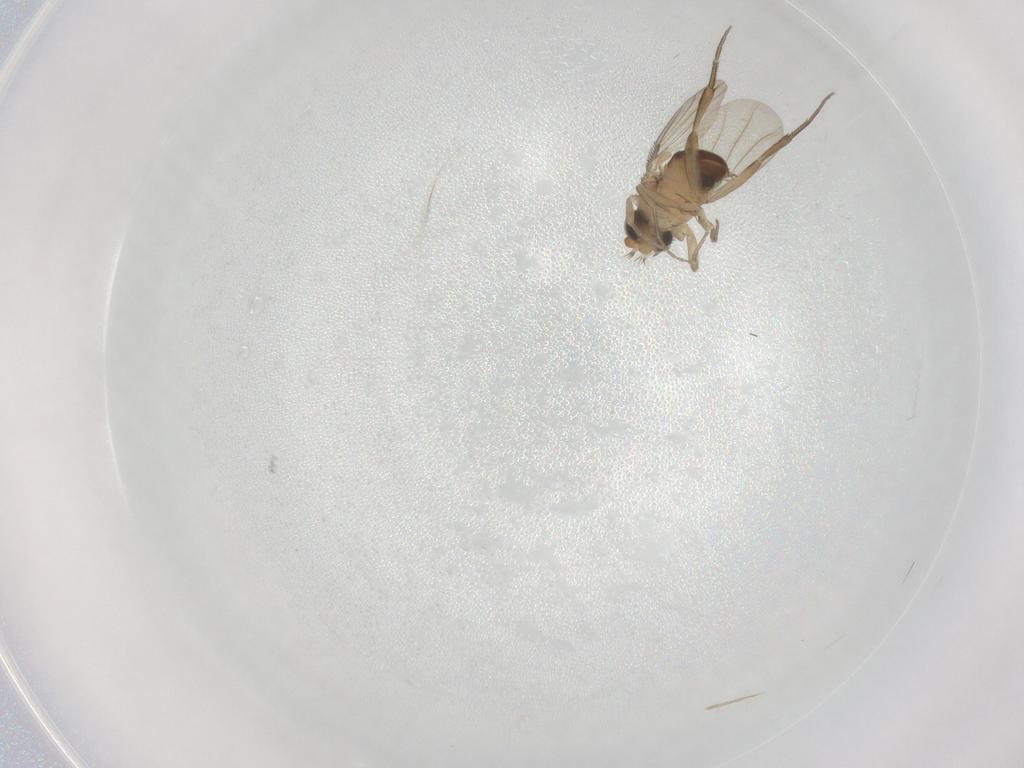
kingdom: Animalia
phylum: Arthropoda
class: Insecta
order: Diptera
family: Phoridae
